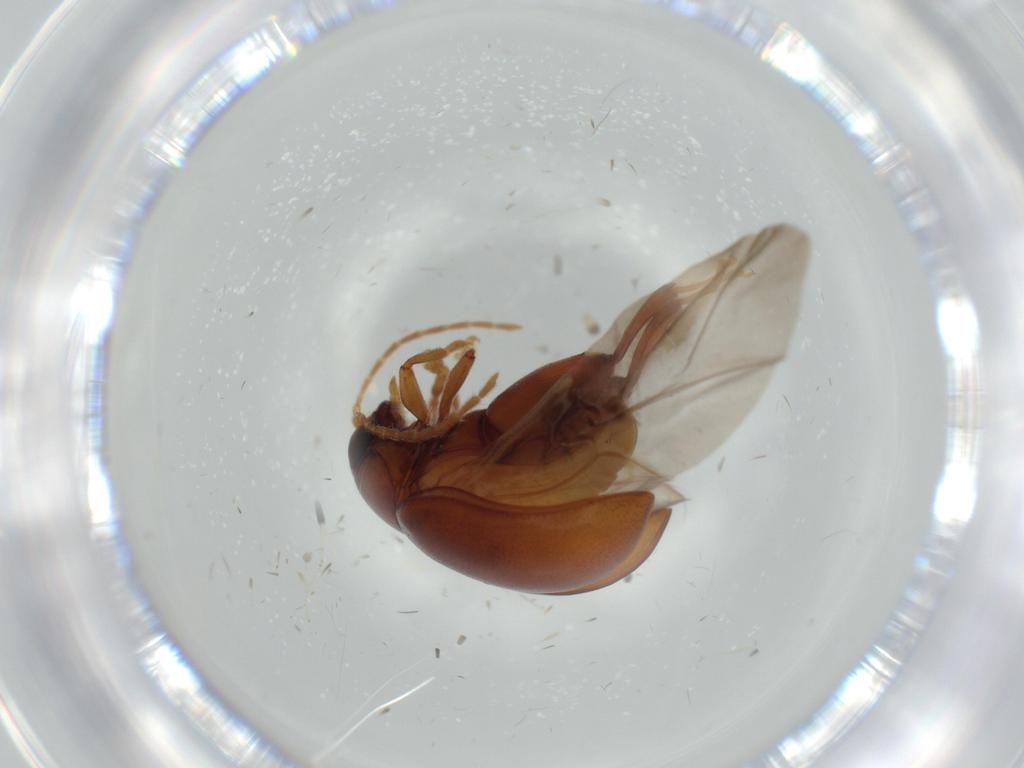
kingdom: Animalia
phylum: Arthropoda
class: Insecta
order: Coleoptera
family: Chrysomelidae
